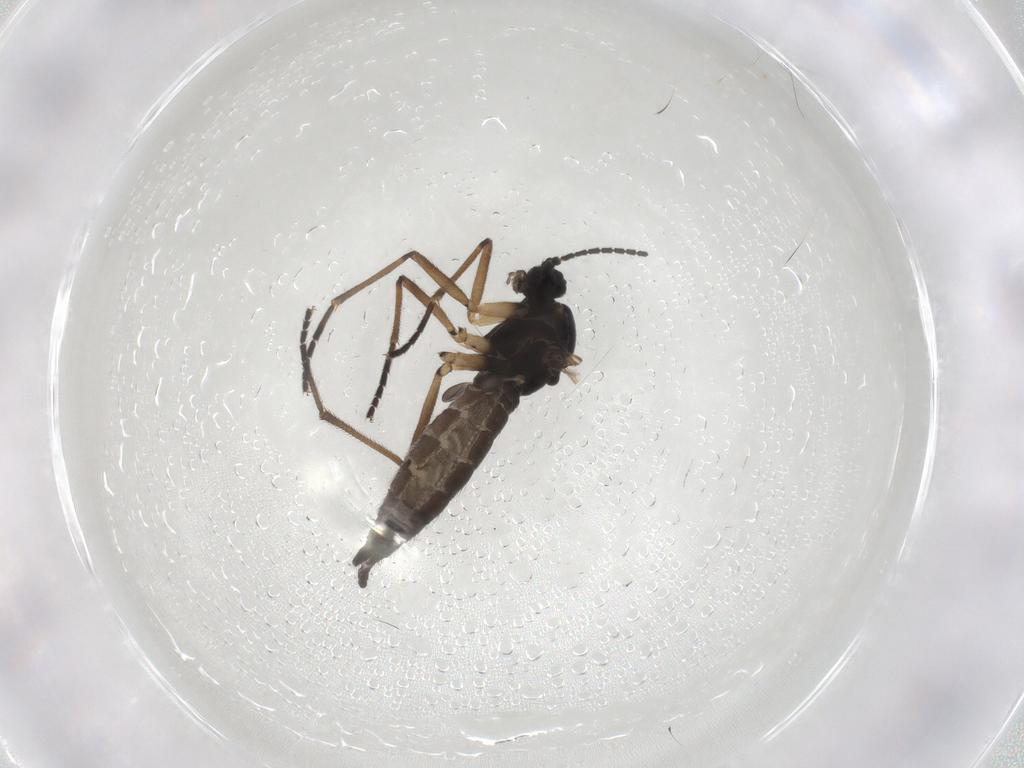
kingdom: Animalia
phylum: Arthropoda
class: Insecta
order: Diptera
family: Sciaridae
